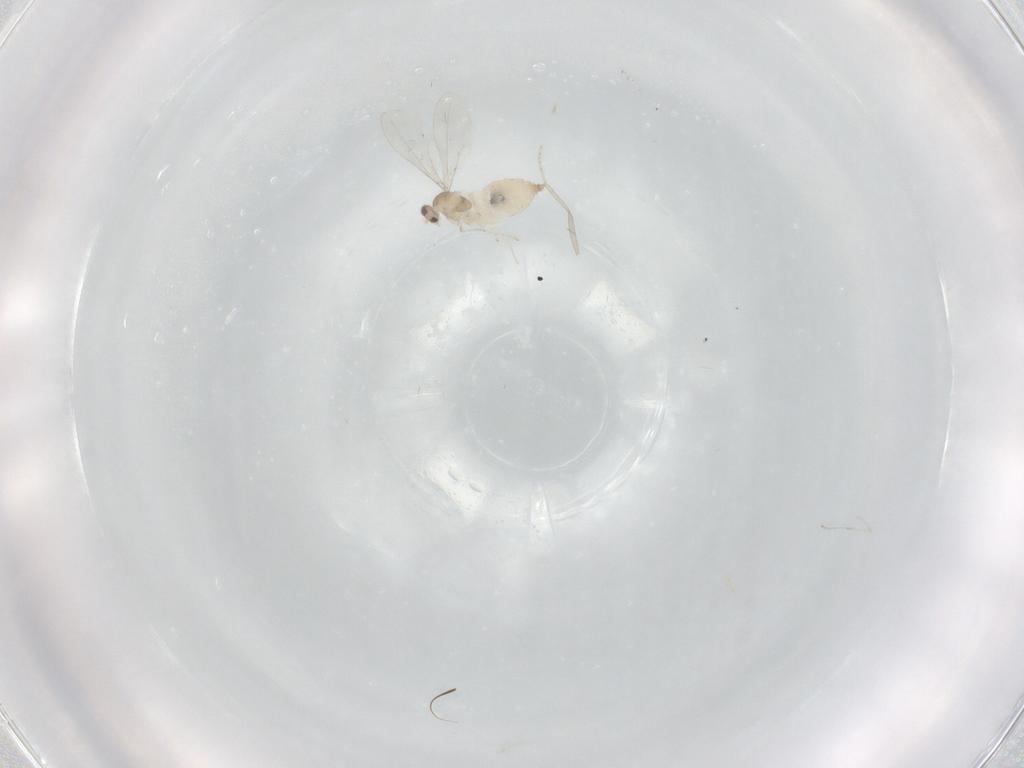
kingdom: Animalia
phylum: Arthropoda
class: Insecta
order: Diptera
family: Cecidomyiidae
